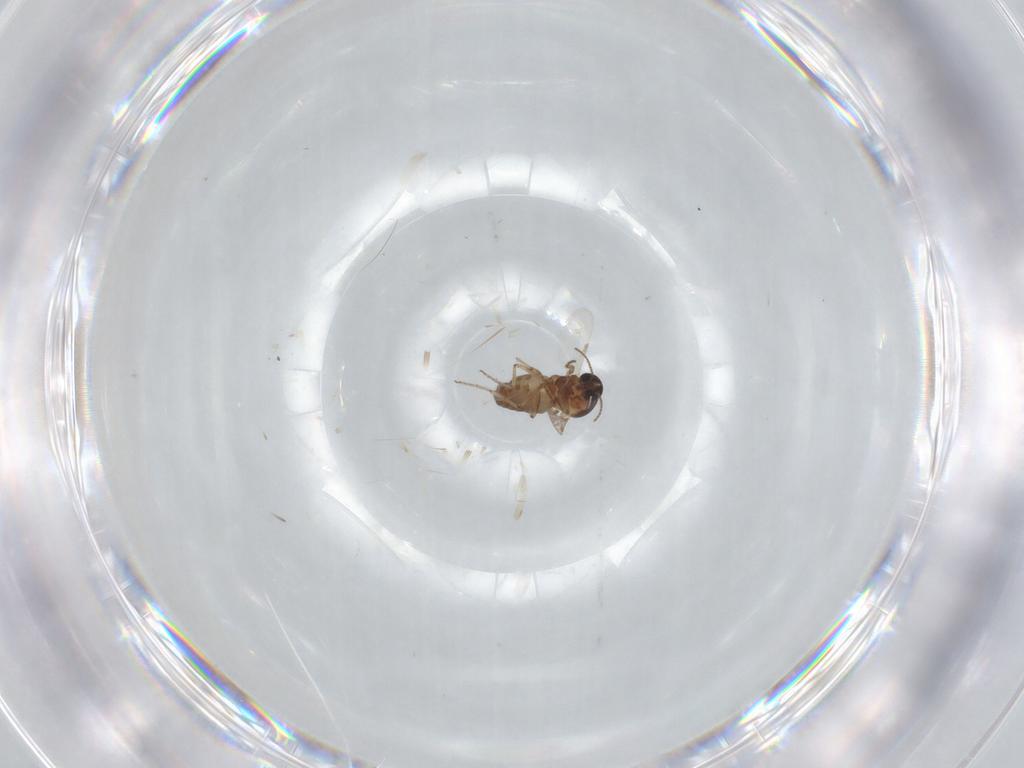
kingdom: Animalia
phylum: Arthropoda
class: Insecta
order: Diptera
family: Ceratopogonidae
